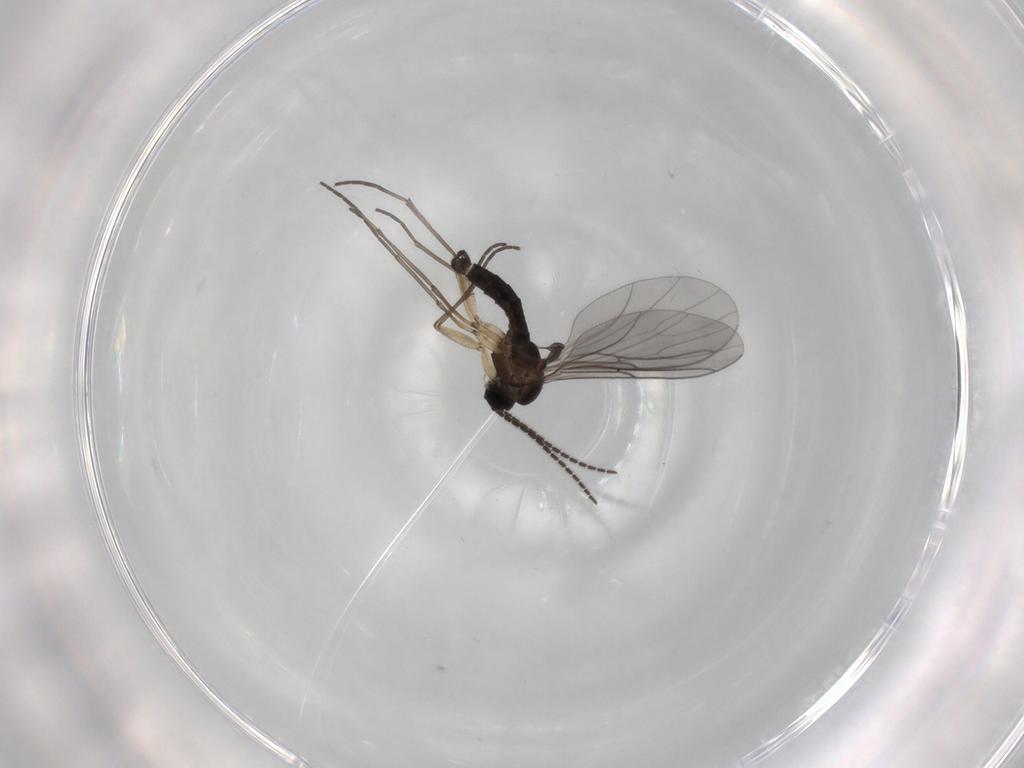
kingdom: Animalia
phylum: Arthropoda
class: Insecta
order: Diptera
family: Sciaridae
